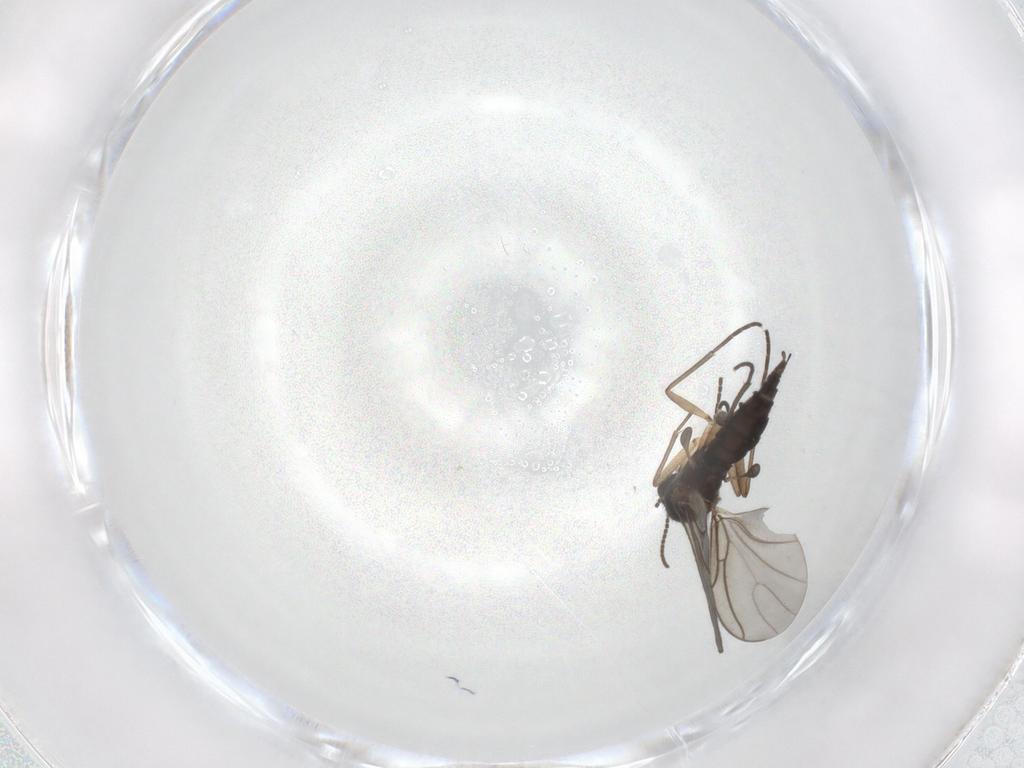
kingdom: Animalia
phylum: Arthropoda
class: Insecta
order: Diptera
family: Sciaridae
